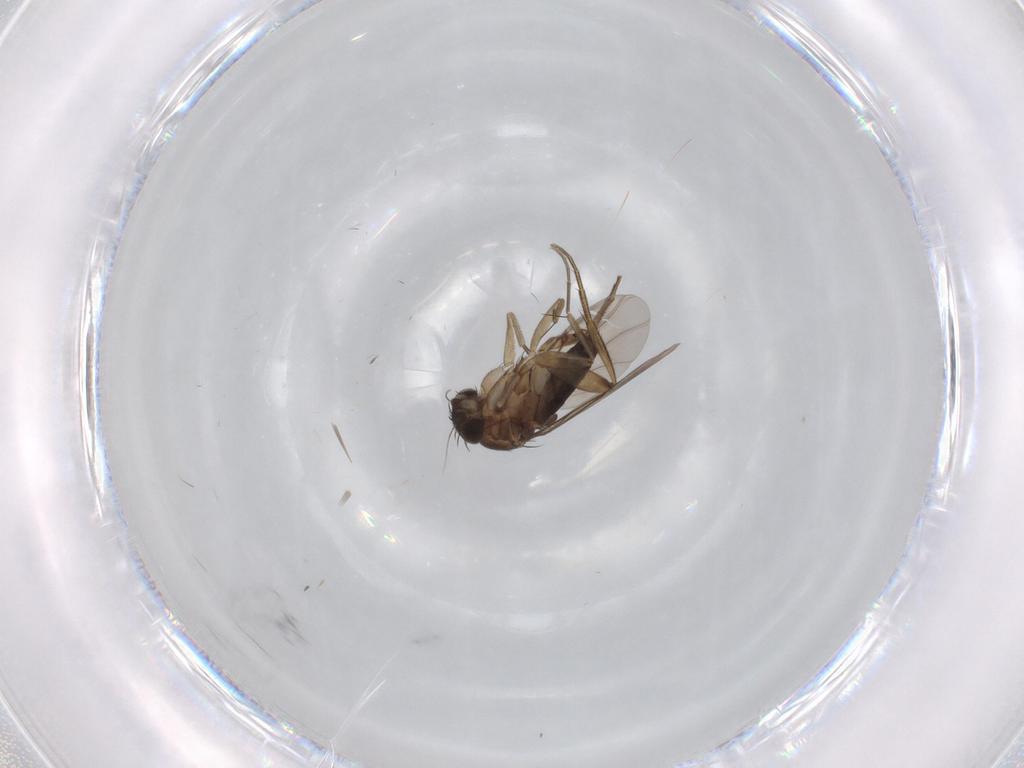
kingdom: Animalia
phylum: Arthropoda
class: Insecta
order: Diptera
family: Phoridae
